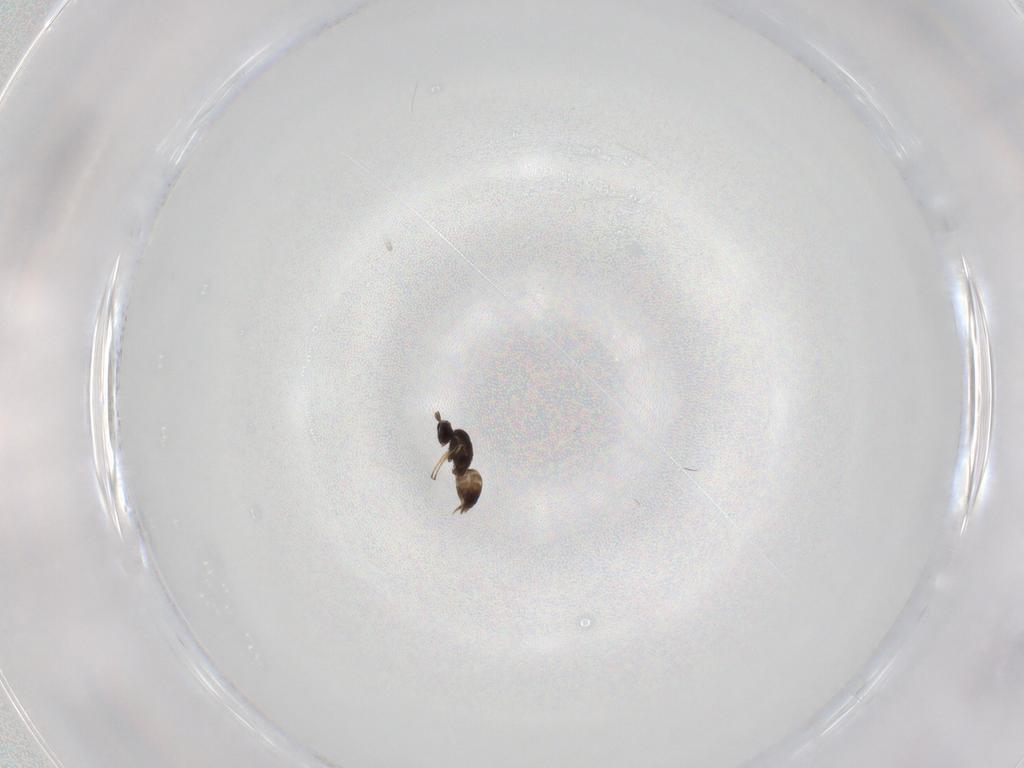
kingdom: Animalia
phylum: Arthropoda
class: Insecta
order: Hymenoptera
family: Mymaridae
